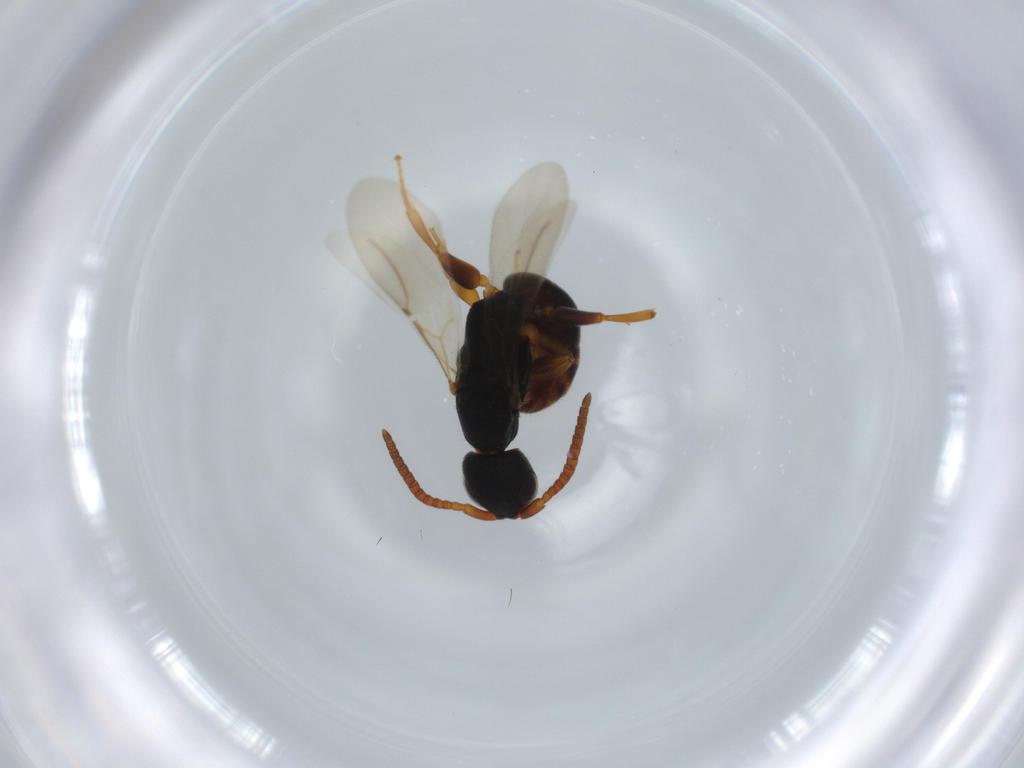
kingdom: Animalia
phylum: Arthropoda
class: Insecta
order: Hymenoptera
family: Bethylidae
